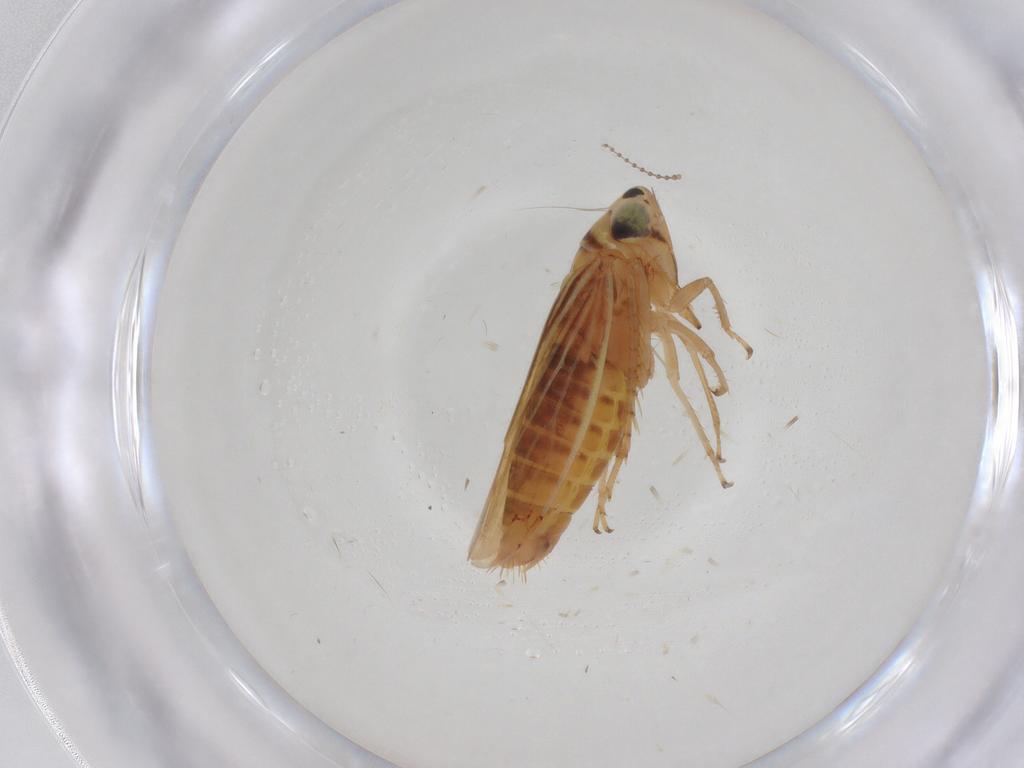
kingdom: Animalia
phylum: Arthropoda
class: Insecta
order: Hemiptera
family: Cicadellidae
